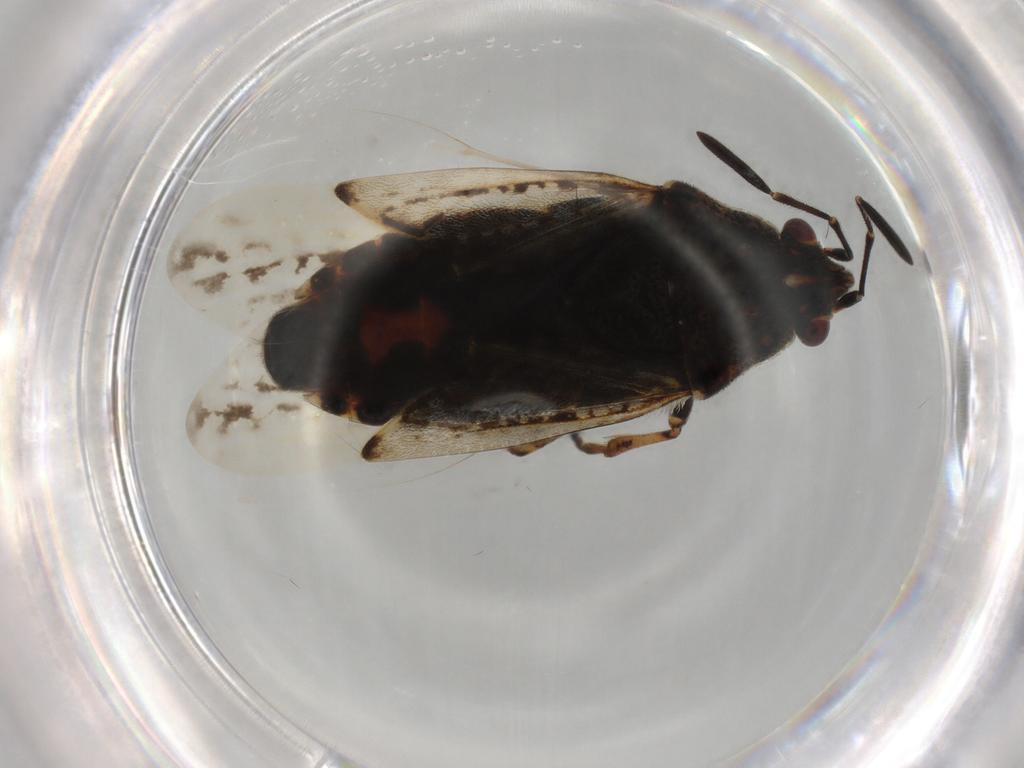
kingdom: Animalia
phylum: Arthropoda
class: Insecta
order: Hemiptera
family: Lygaeidae
